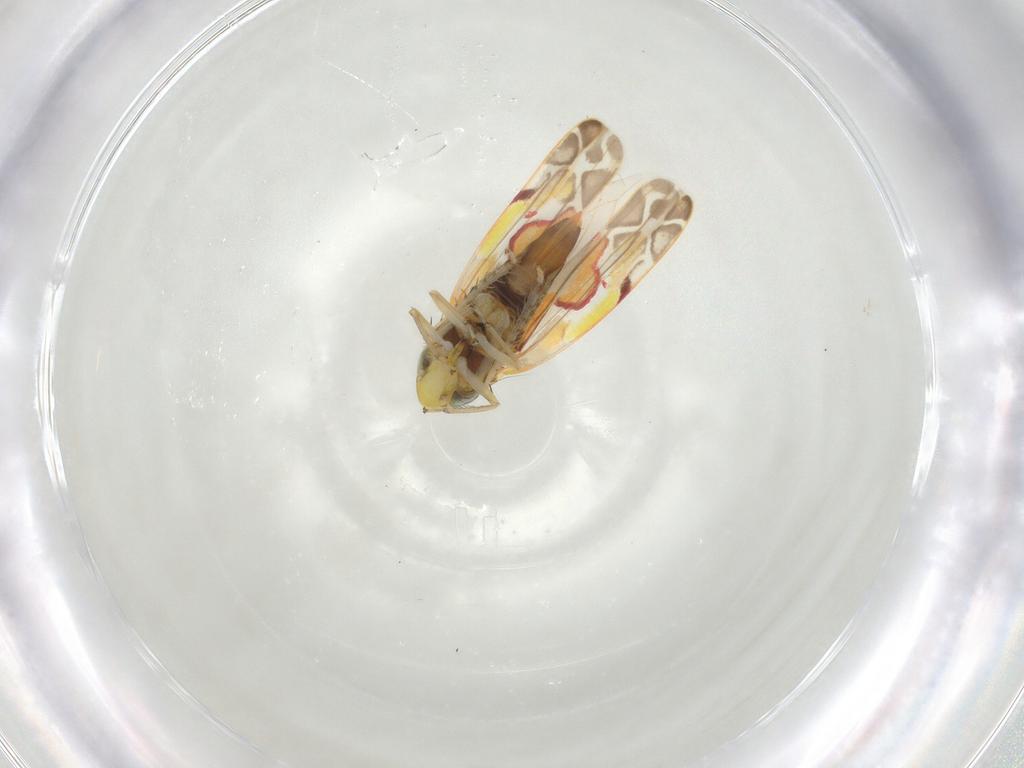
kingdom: Animalia
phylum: Arthropoda
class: Insecta
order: Hemiptera
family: Cicadellidae
